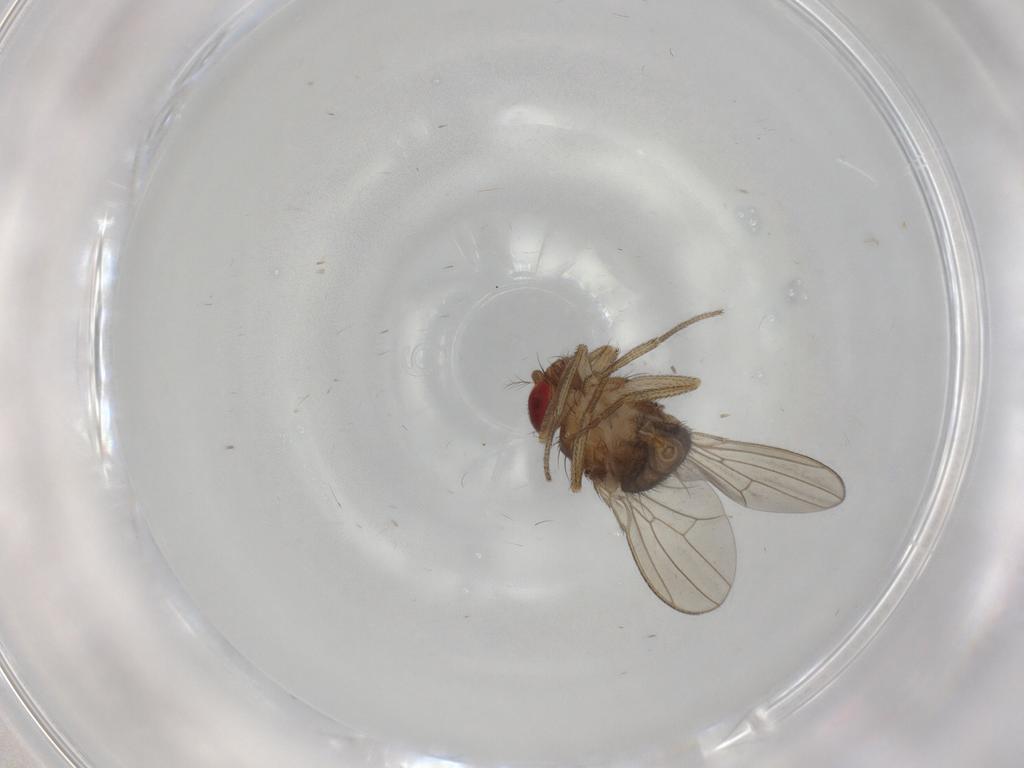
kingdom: Animalia
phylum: Arthropoda
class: Insecta
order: Diptera
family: Drosophilidae
